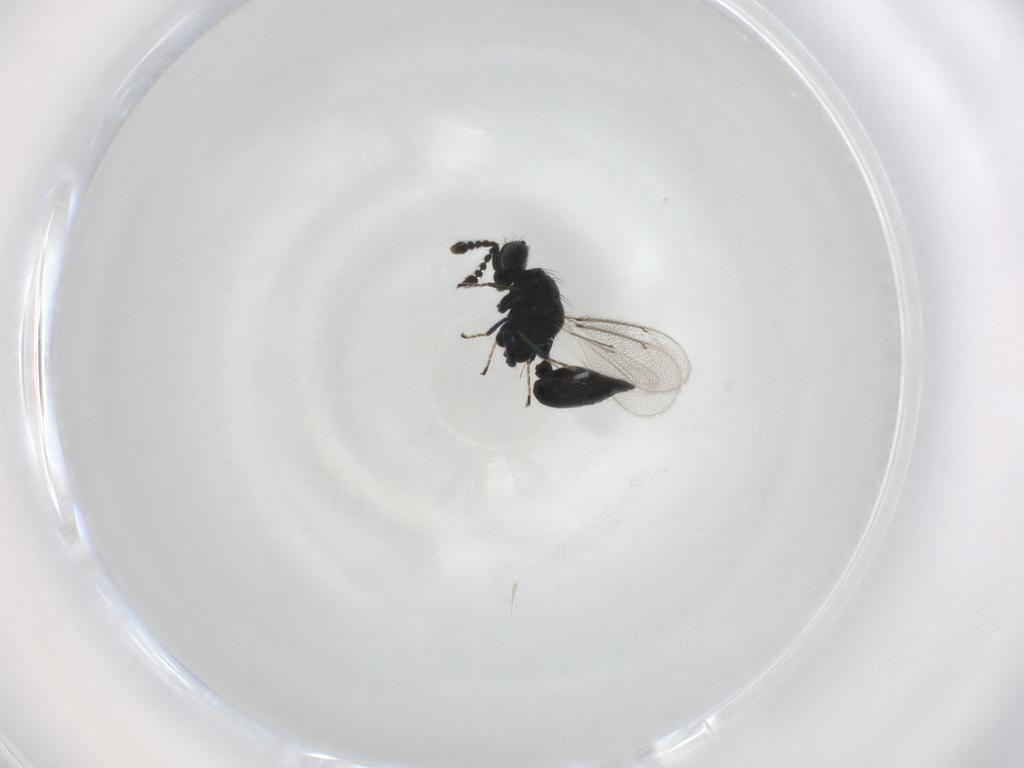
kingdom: Animalia
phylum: Arthropoda
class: Insecta
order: Hymenoptera
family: Eulophidae
